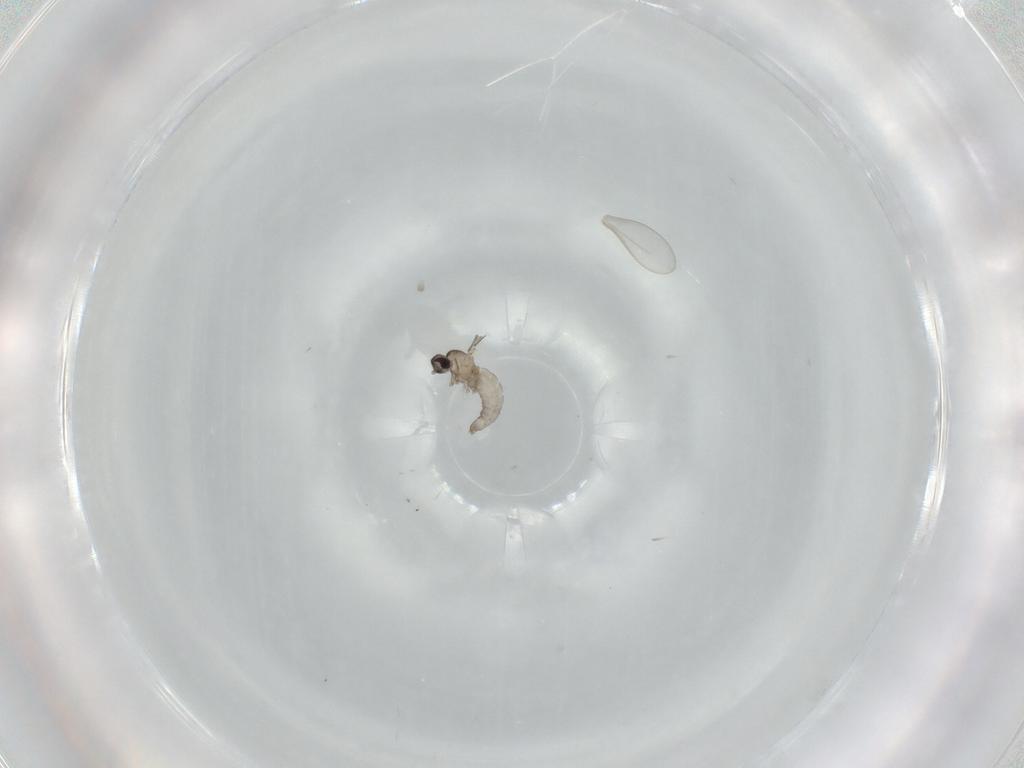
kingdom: Animalia
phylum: Arthropoda
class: Insecta
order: Diptera
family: Cecidomyiidae
